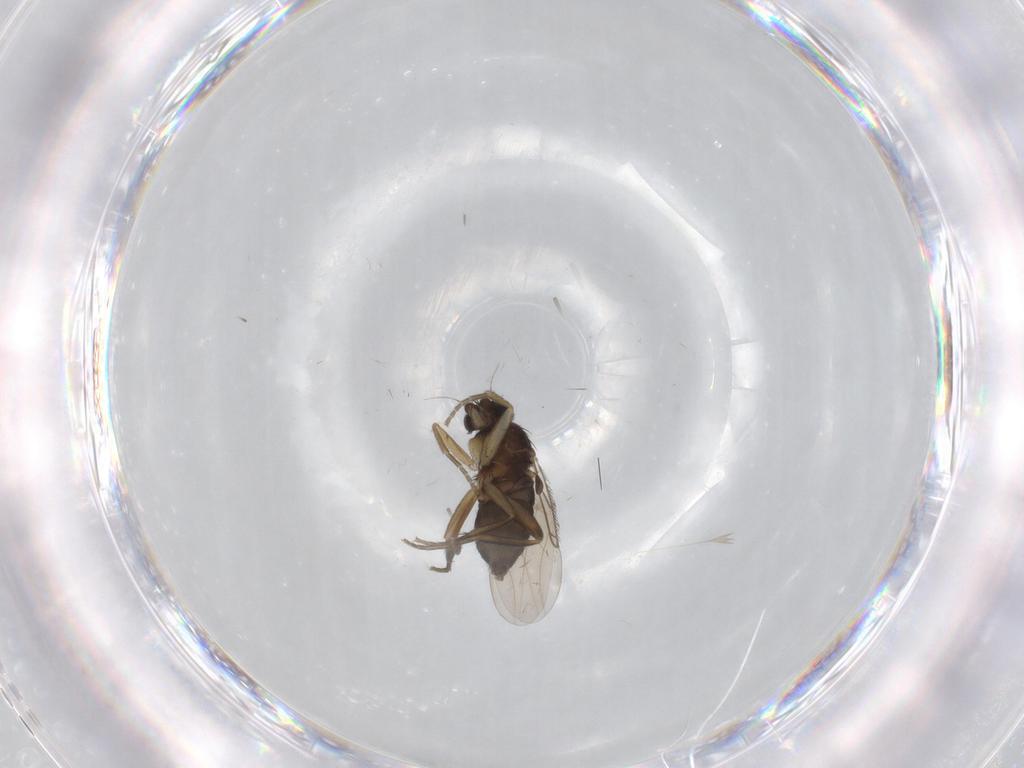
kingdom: Animalia
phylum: Arthropoda
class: Insecta
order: Diptera
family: Phoridae
